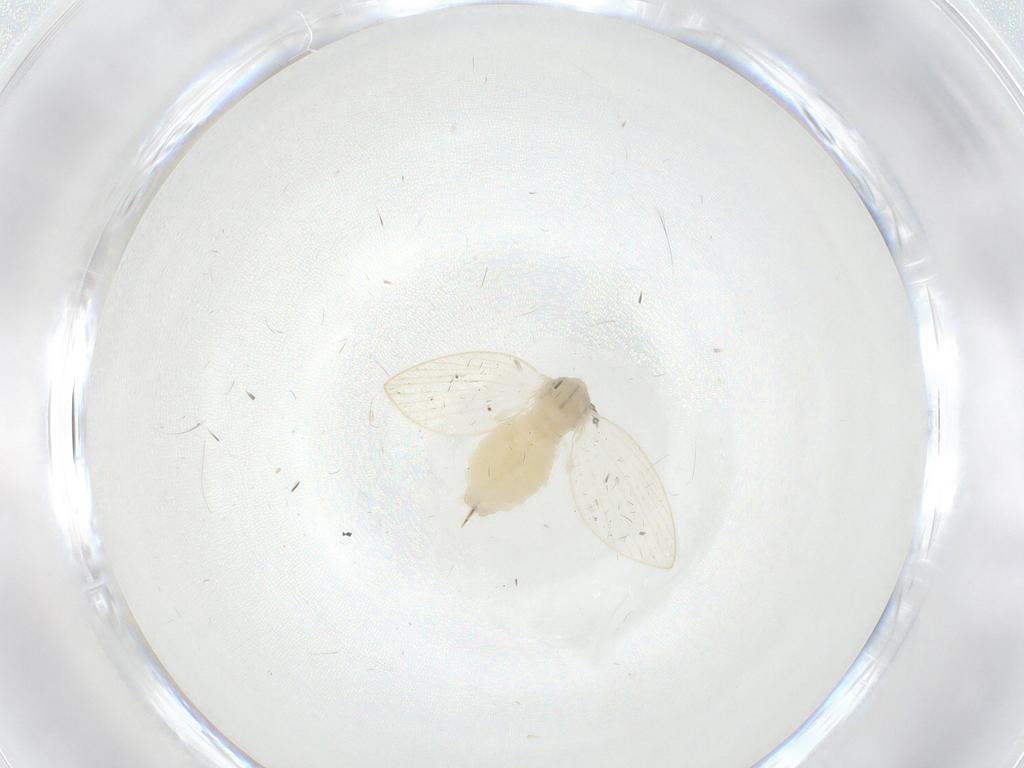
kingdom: Animalia
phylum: Arthropoda
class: Insecta
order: Diptera
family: Psychodidae
